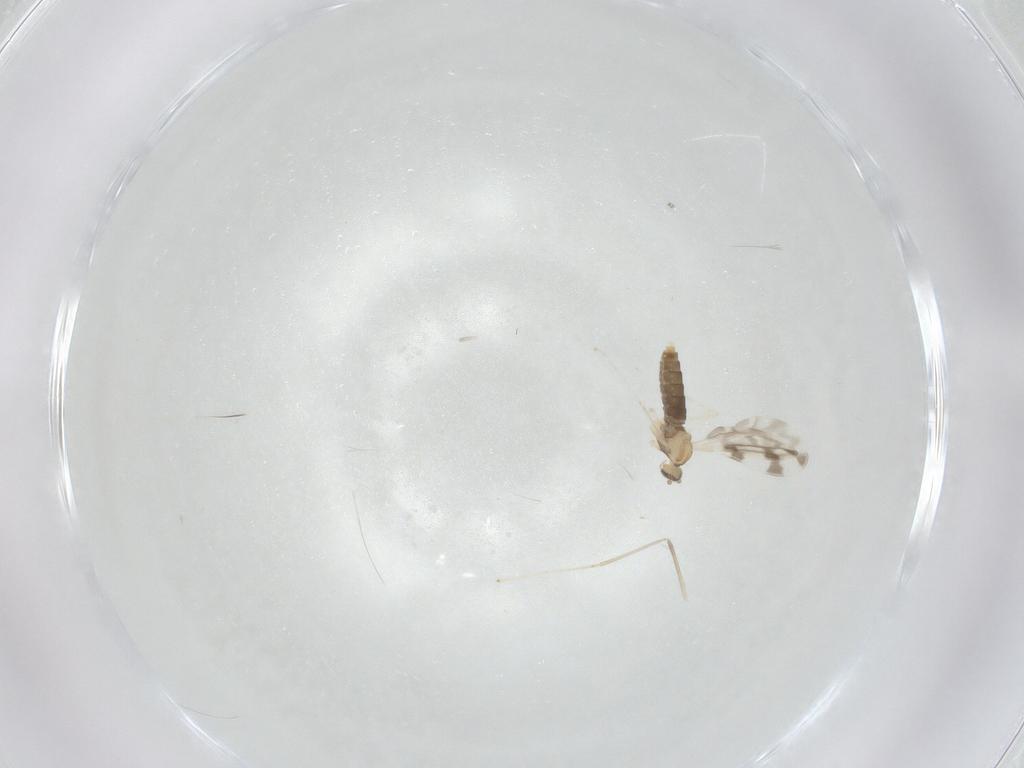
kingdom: Animalia
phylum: Arthropoda
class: Insecta
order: Diptera
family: Cecidomyiidae
